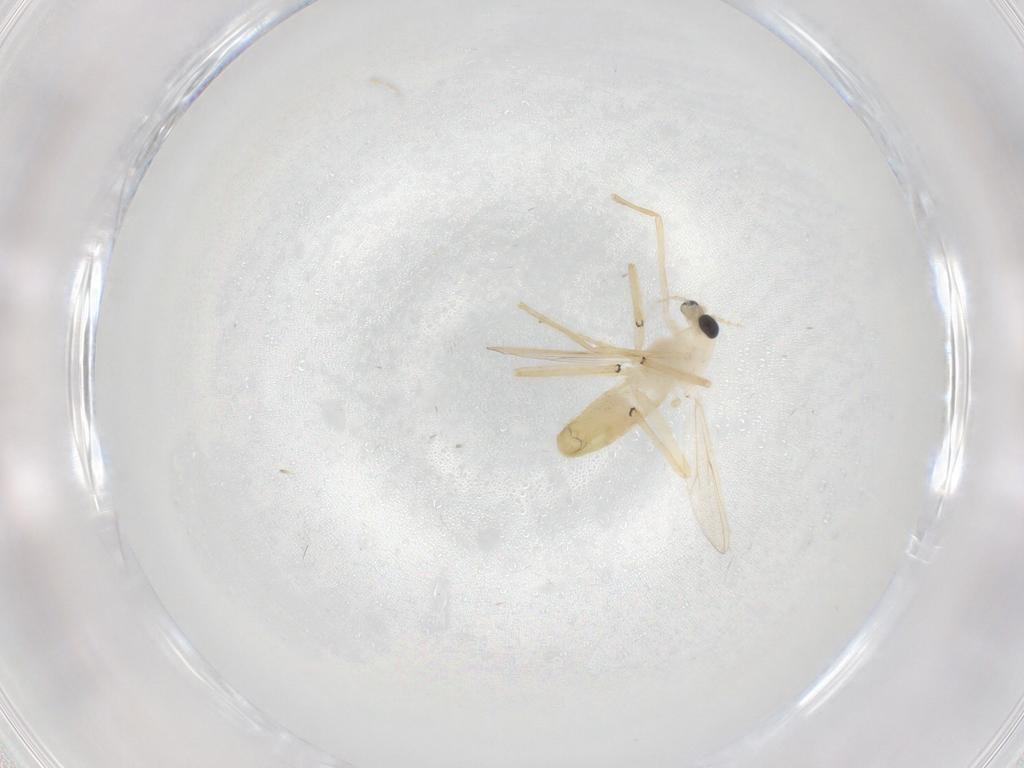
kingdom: Animalia
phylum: Arthropoda
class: Insecta
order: Diptera
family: Chironomidae
